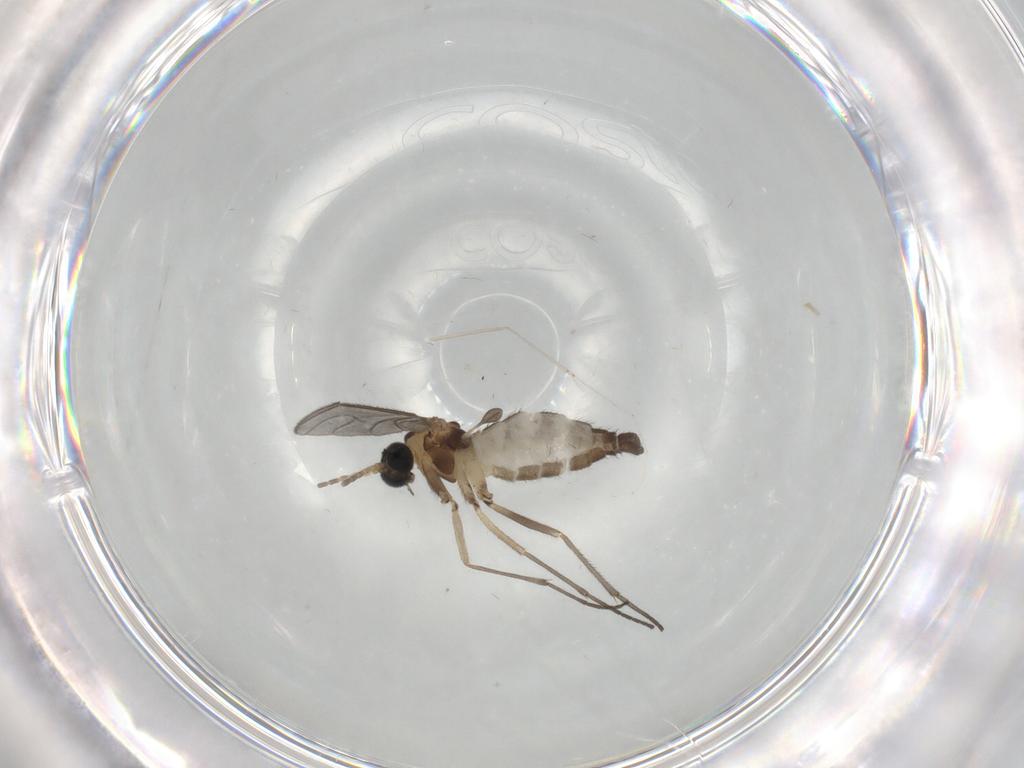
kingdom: Animalia
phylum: Arthropoda
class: Insecta
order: Diptera
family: Sciaridae
